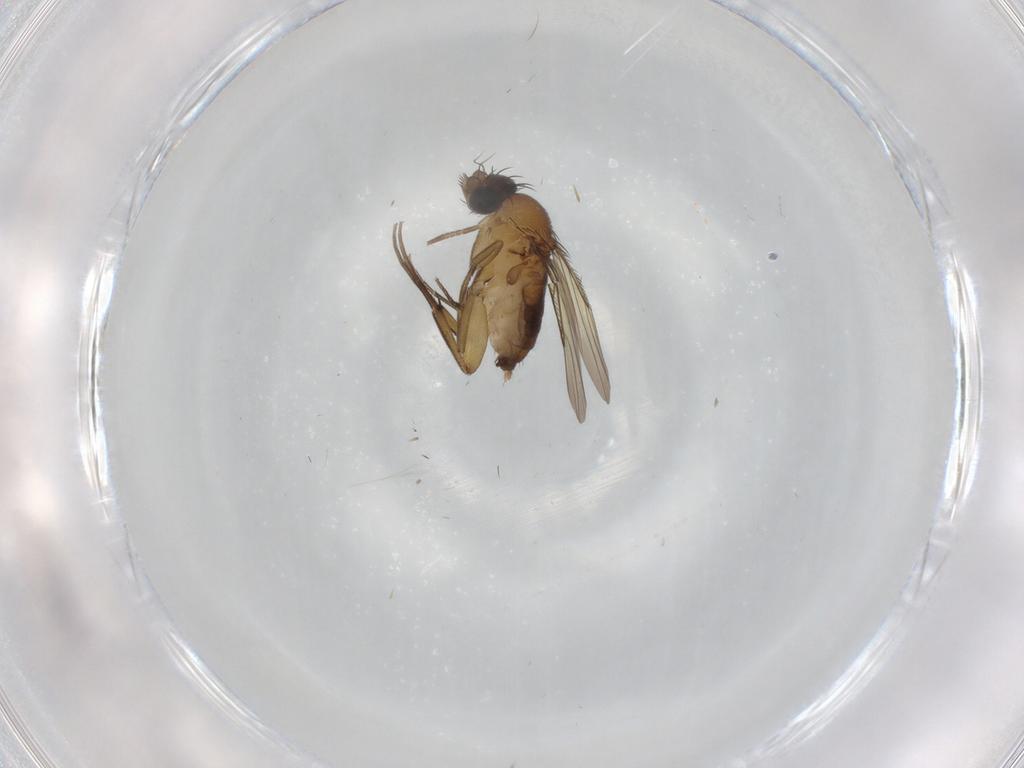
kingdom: Animalia
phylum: Arthropoda
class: Insecta
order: Diptera
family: Phoridae
